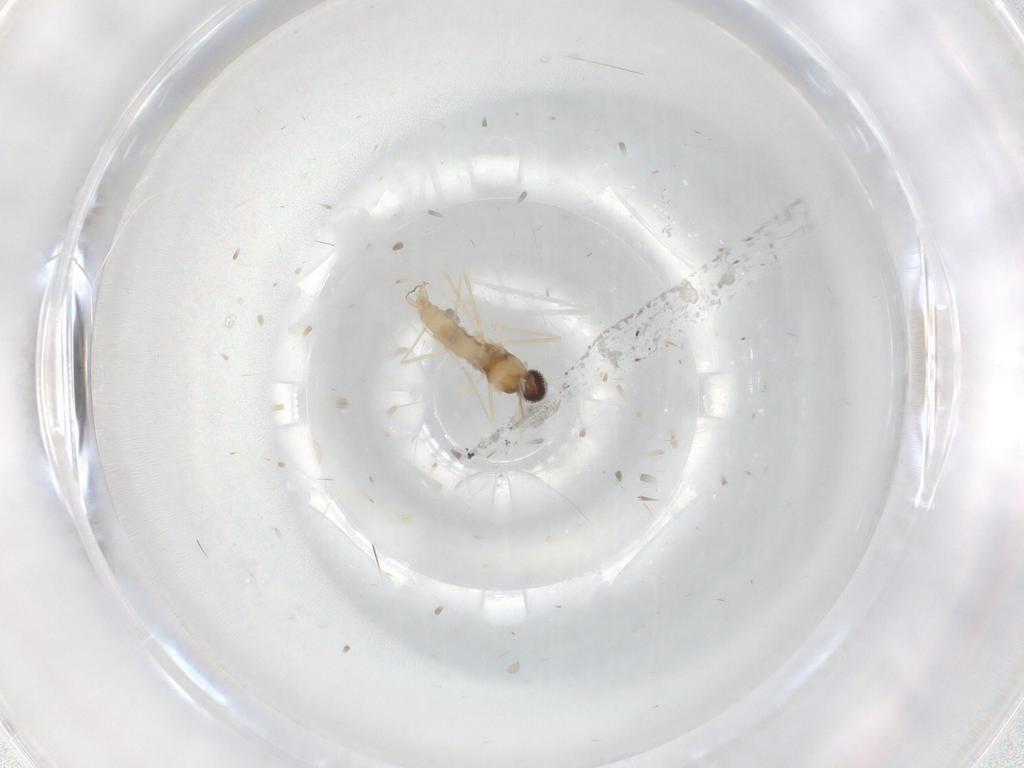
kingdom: Animalia
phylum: Arthropoda
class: Insecta
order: Diptera
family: Cecidomyiidae
